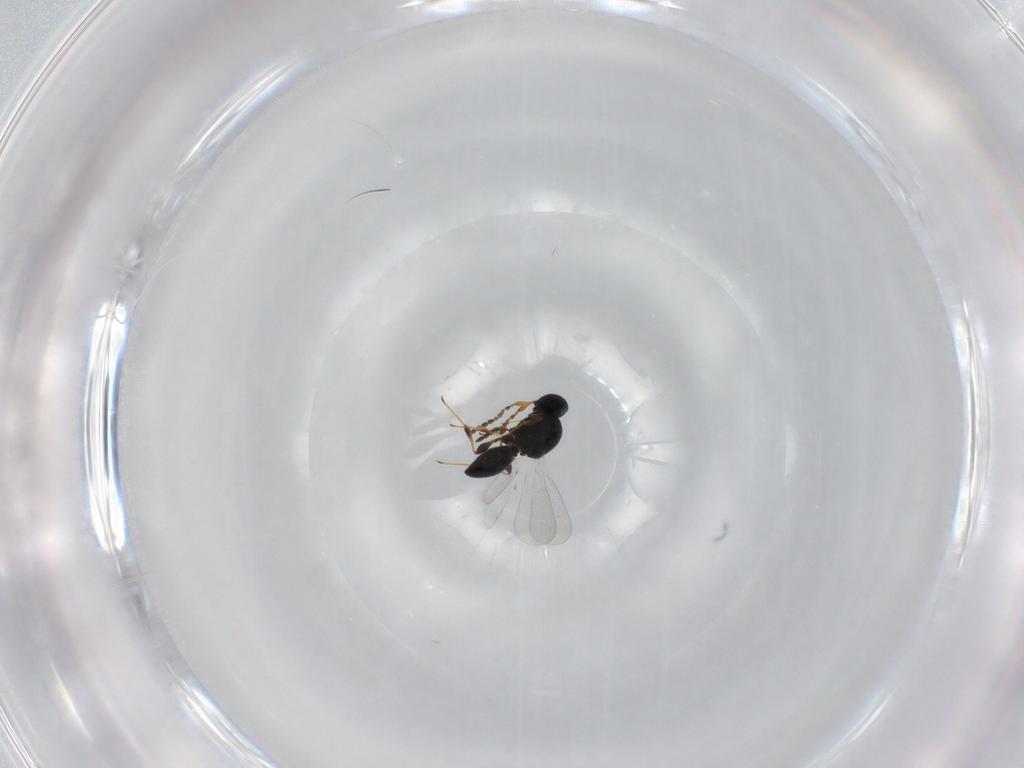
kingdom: Animalia
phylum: Arthropoda
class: Insecta
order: Hymenoptera
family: Platygastridae
